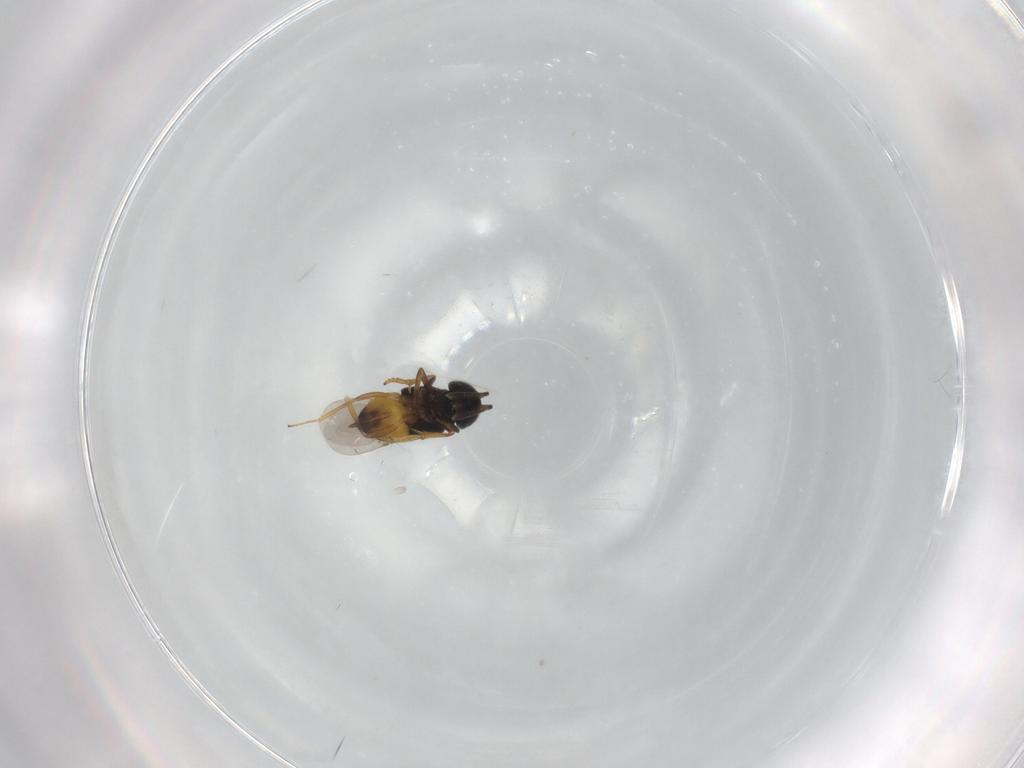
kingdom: Animalia
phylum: Arthropoda
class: Insecta
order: Hymenoptera
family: Encyrtidae
